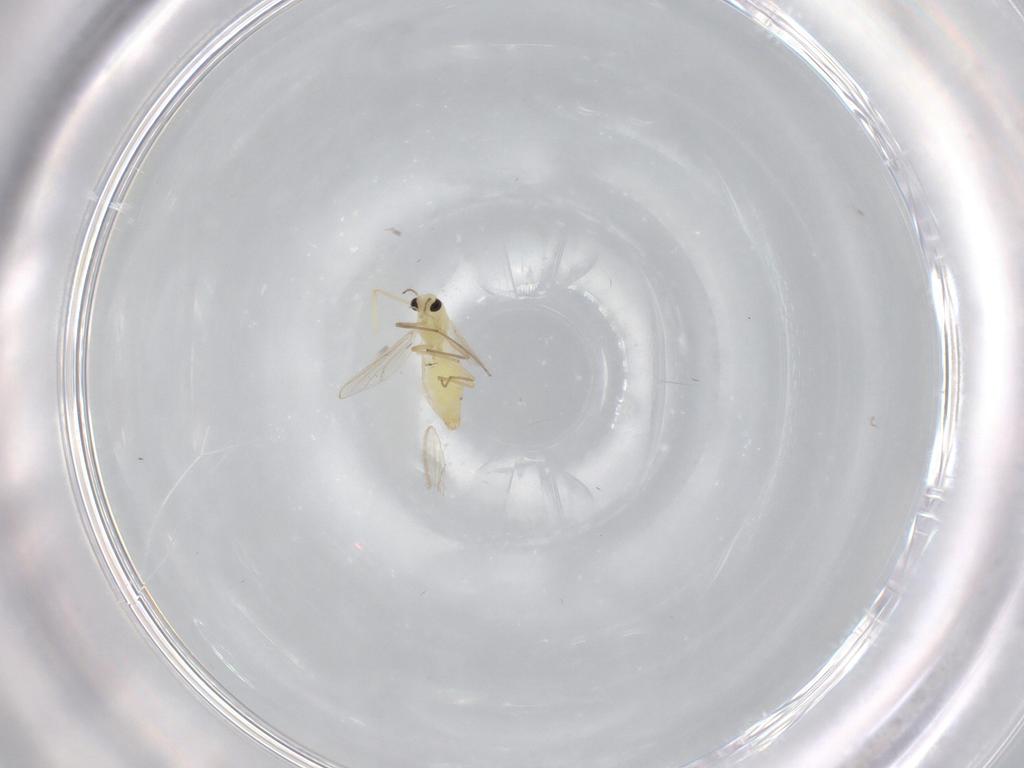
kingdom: Animalia
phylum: Arthropoda
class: Insecta
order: Diptera
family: Chironomidae
